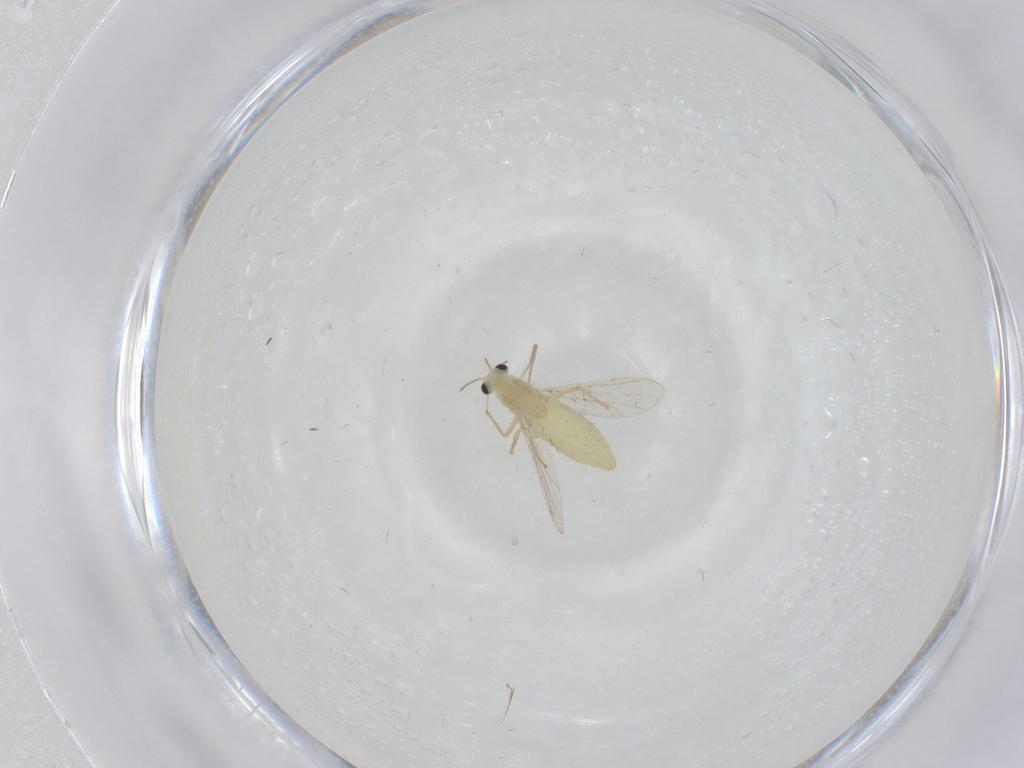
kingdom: Animalia
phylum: Arthropoda
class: Insecta
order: Diptera
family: Chironomidae
